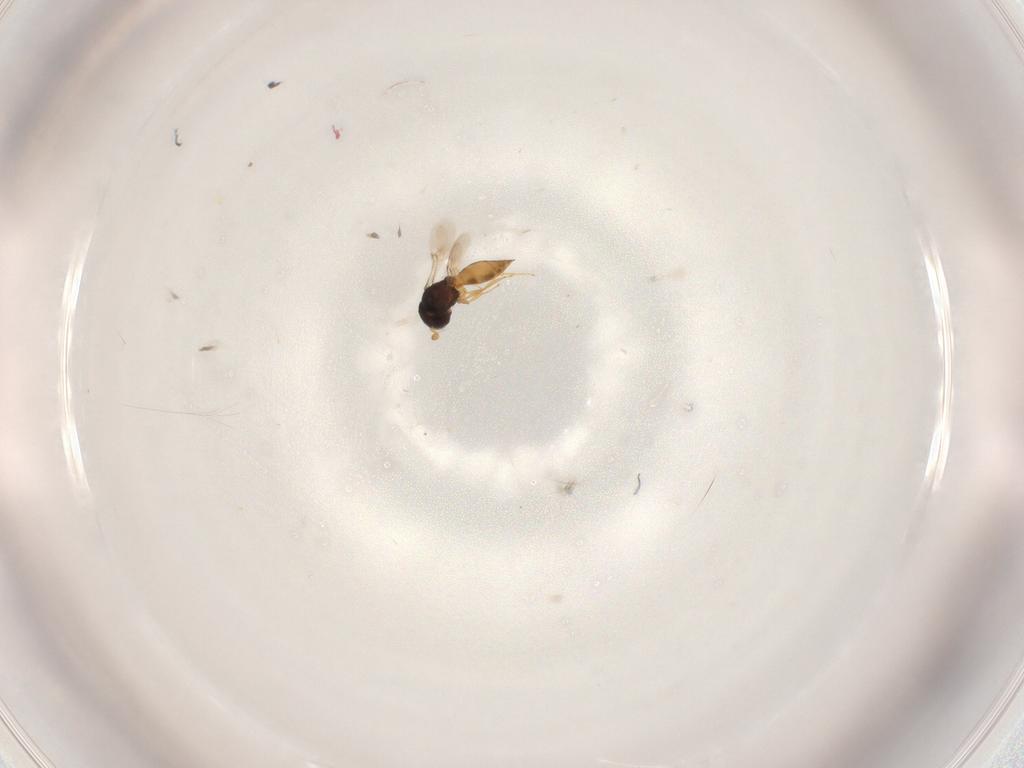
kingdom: Animalia
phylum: Arthropoda
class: Insecta
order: Hymenoptera
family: Scelionidae
